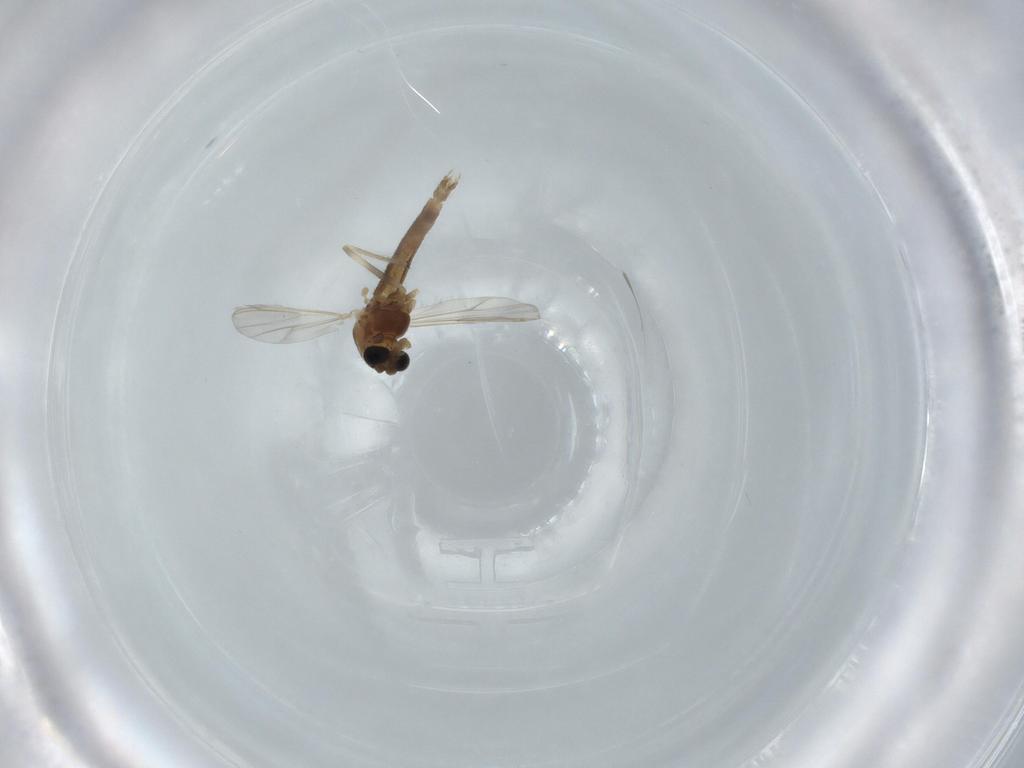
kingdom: Animalia
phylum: Arthropoda
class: Insecta
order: Diptera
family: Chironomidae
